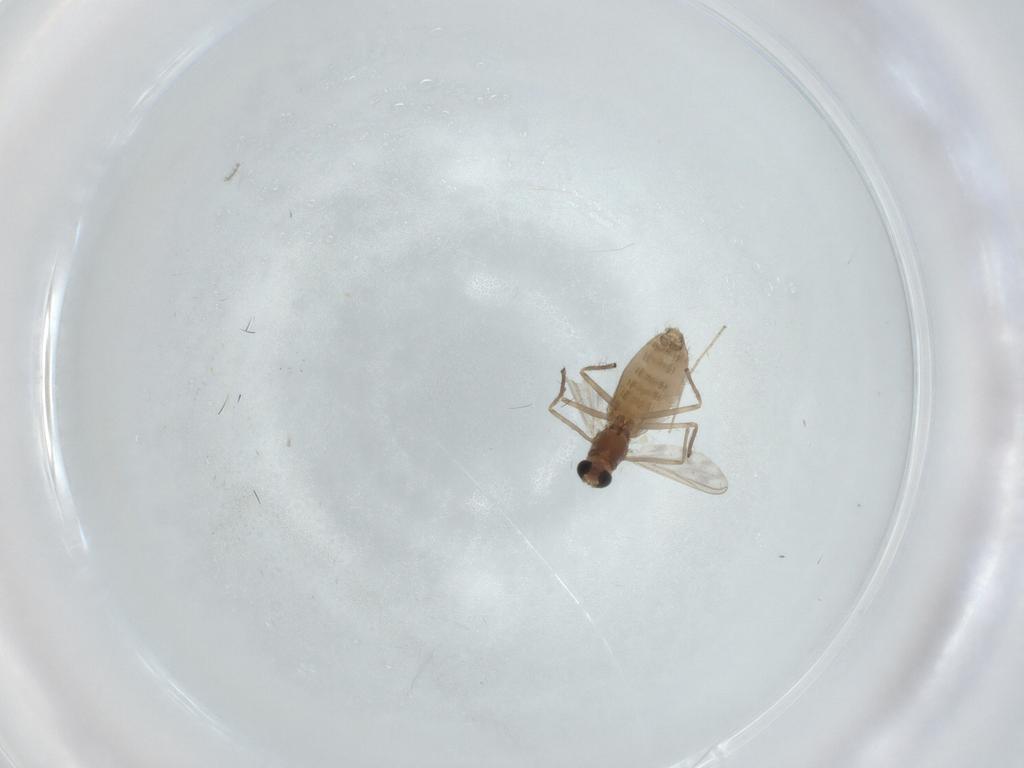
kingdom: Animalia
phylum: Arthropoda
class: Insecta
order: Diptera
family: Chironomidae
